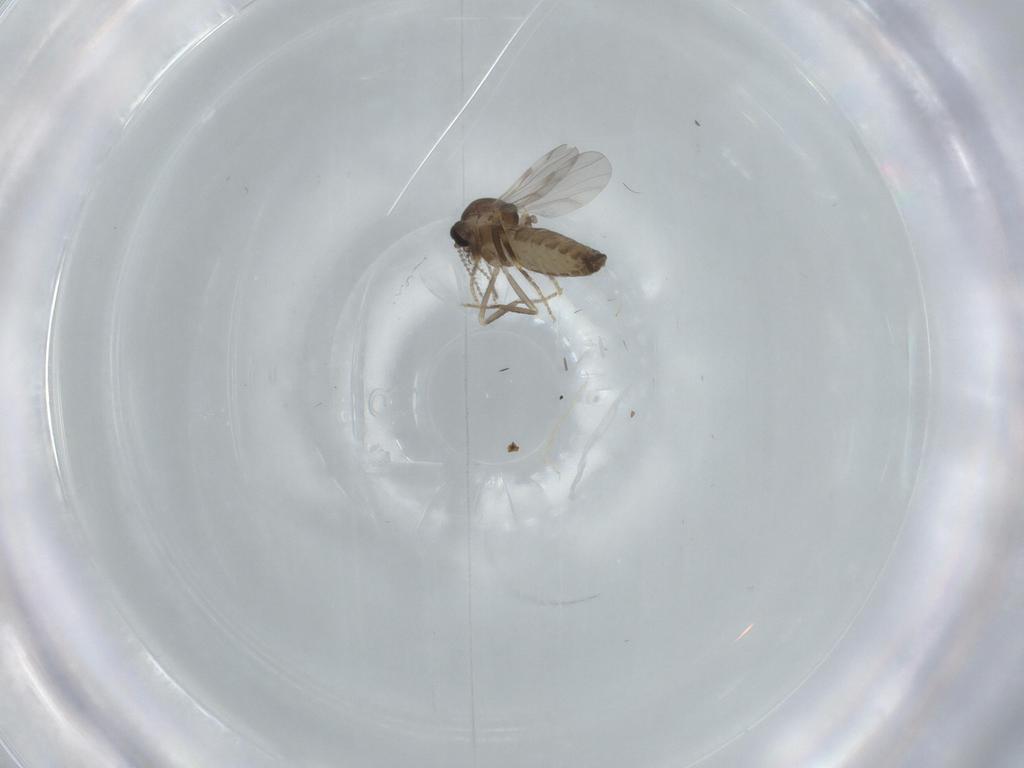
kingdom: Animalia
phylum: Arthropoda
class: Insecta
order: Diptera
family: Ceratopogonidae
